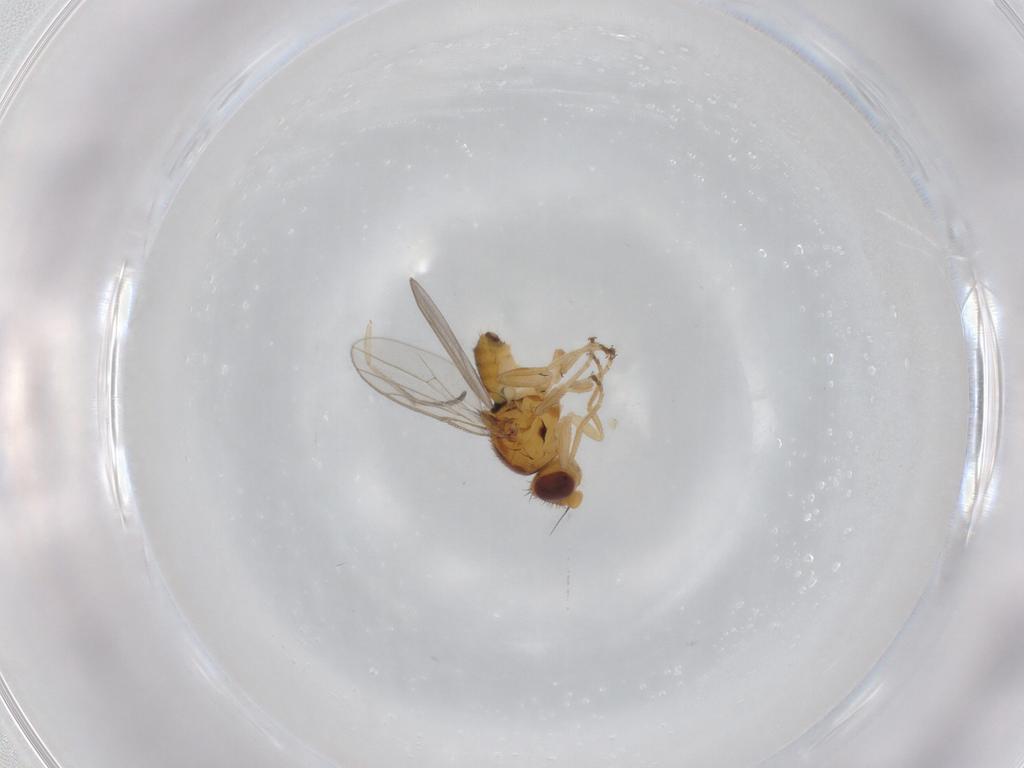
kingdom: Animalia
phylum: Arthropoda
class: Insecta
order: Diptera
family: Chloropidae
